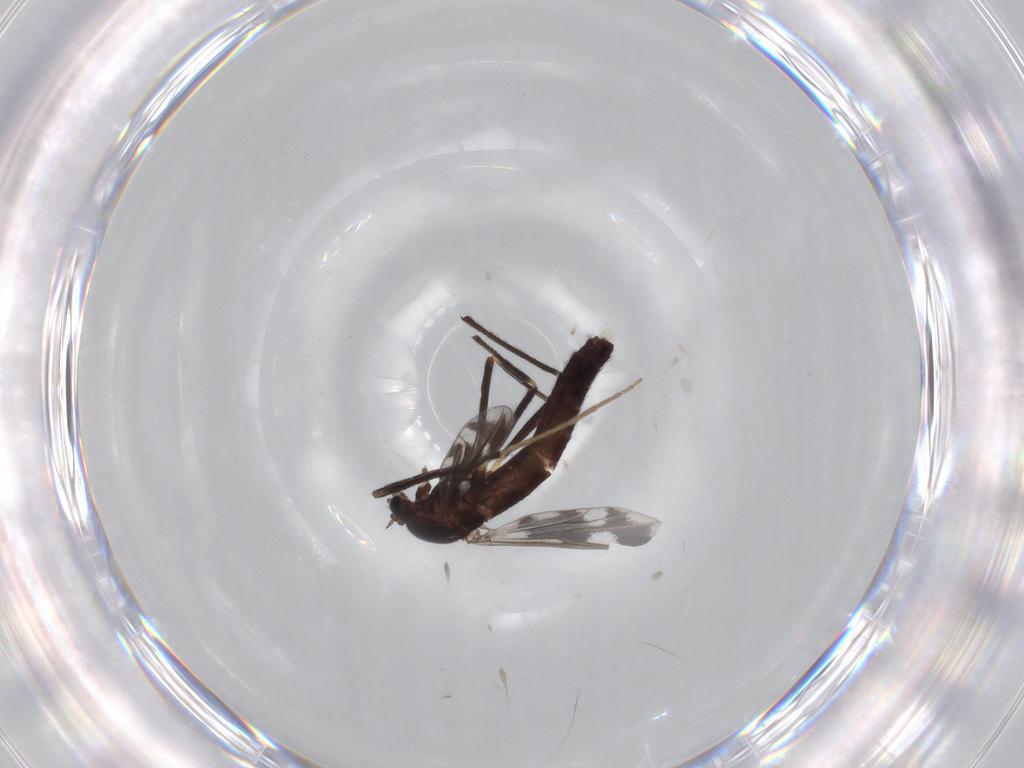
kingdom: Animalia
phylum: Arthropoda
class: Insecta
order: Diptera
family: Chironomidae
